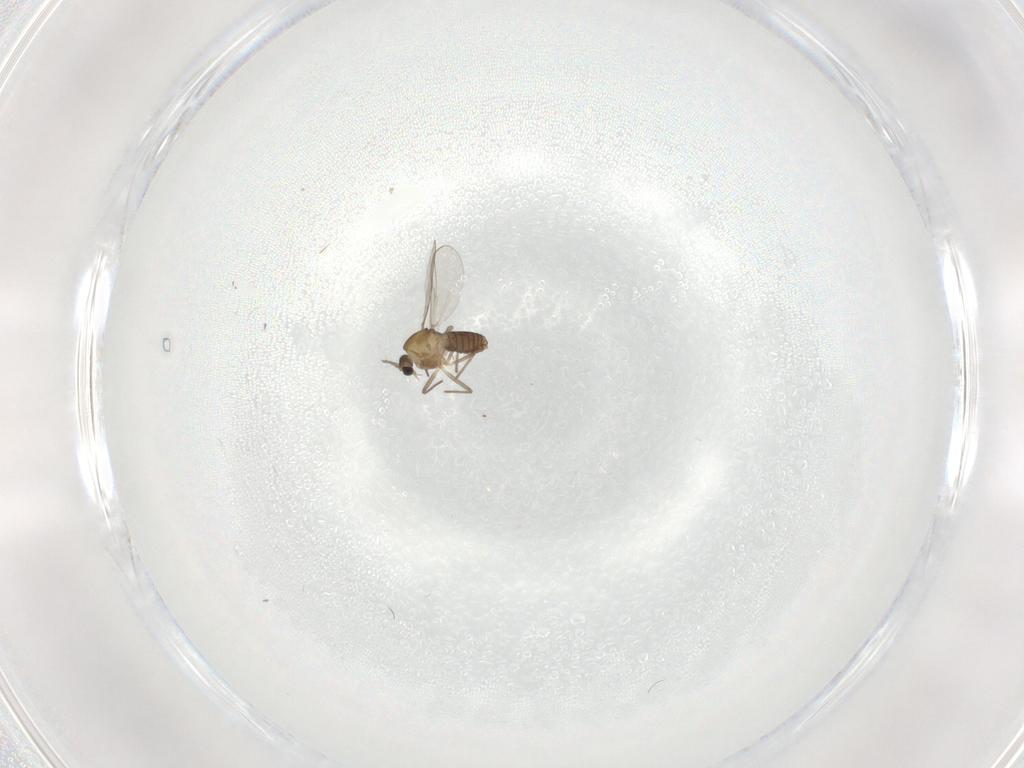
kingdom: Animalia
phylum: Arthropoda
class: Insecta
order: Diptera
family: Chironomidae
